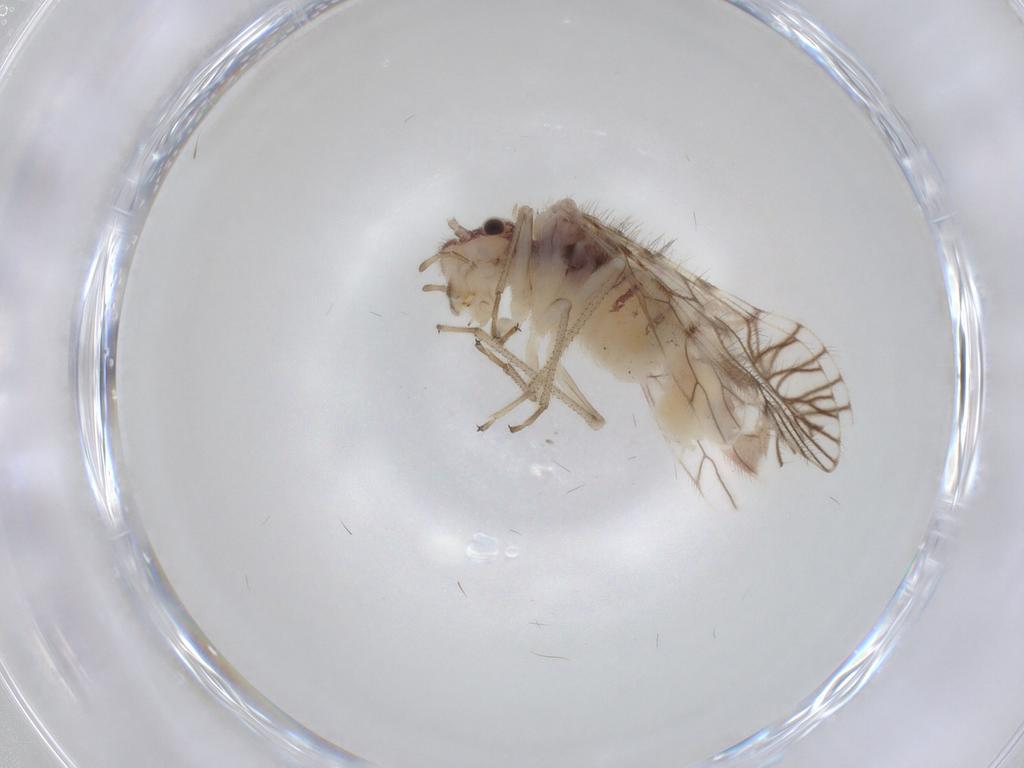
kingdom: Animalia
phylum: Arthropoda
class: Insecta
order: Psocodea
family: Amphipsocidae
